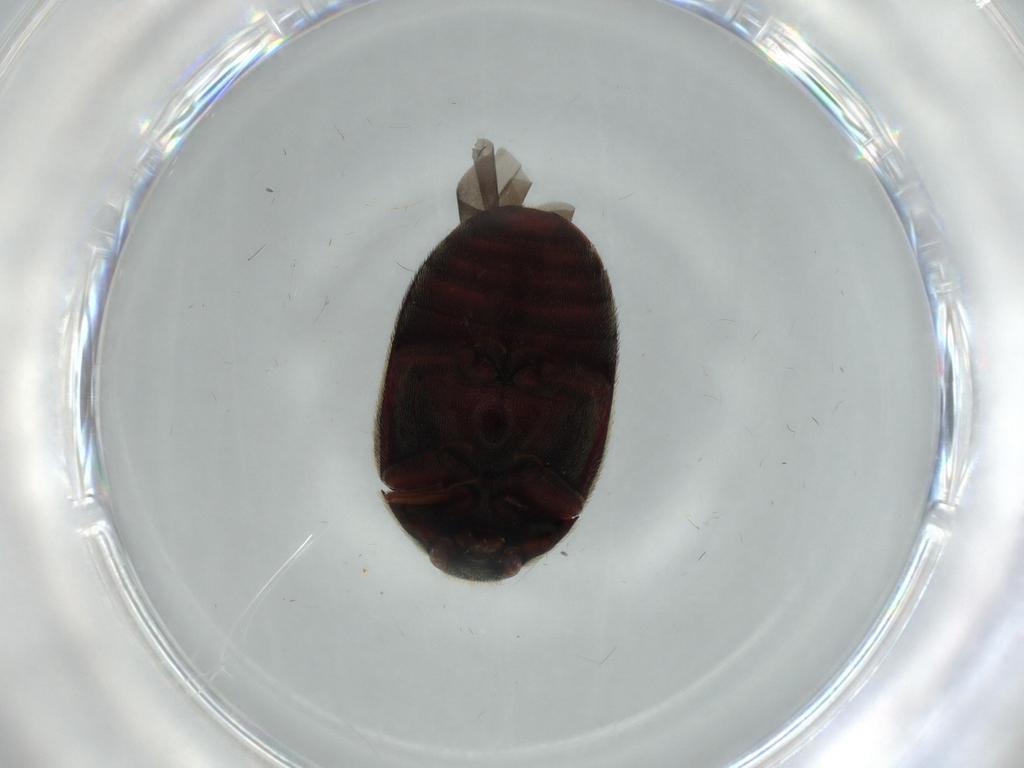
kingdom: Animalia
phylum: Arthropoda
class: Insecta
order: Coleoptera
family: Dermestidae
